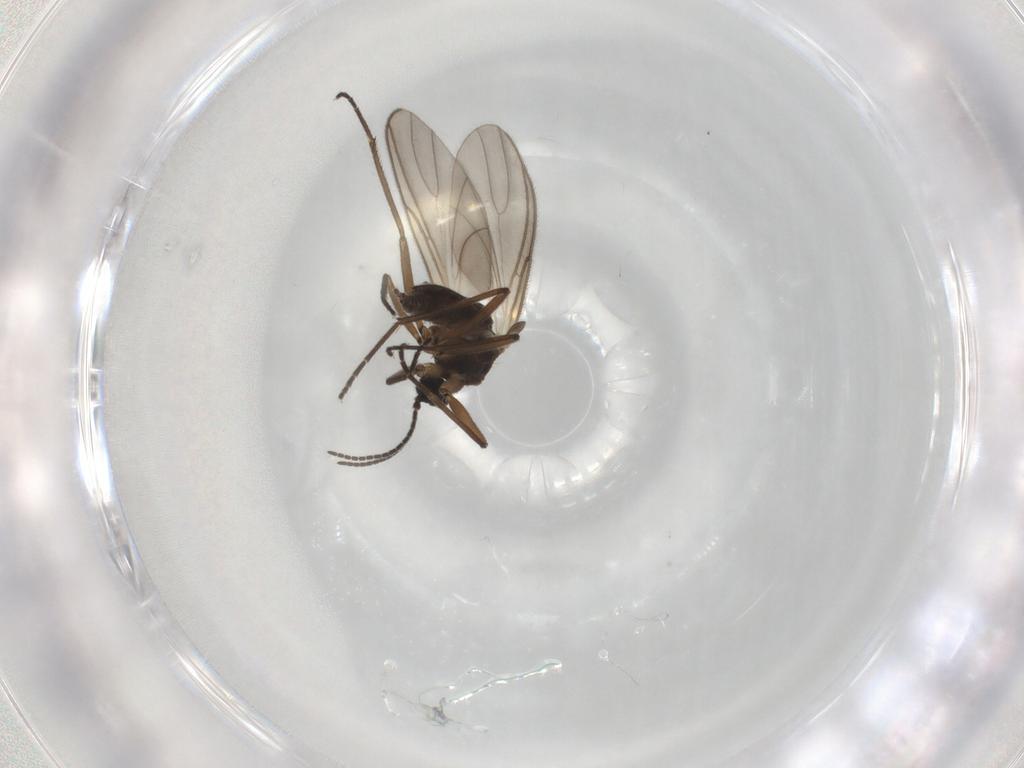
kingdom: Animalia
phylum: Arthropoda
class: Insecta
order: Diptera
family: Sciaridae
